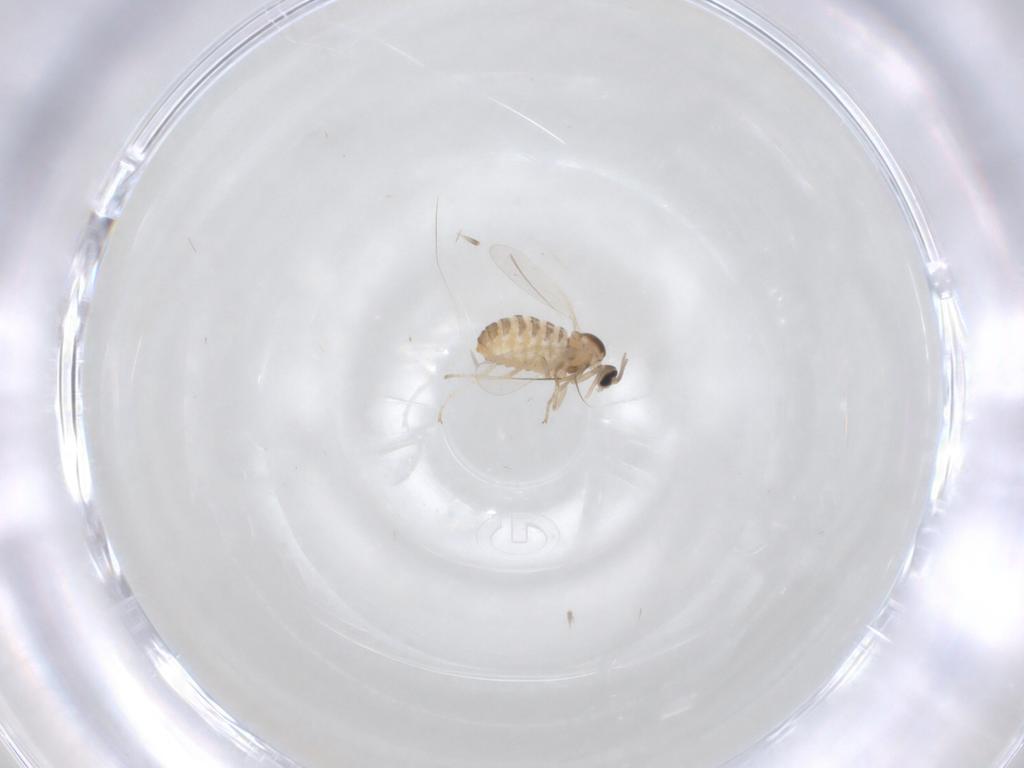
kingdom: Animalia
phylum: Arthropoda
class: Insecta
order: Diptera
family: Cecidomyiidae
